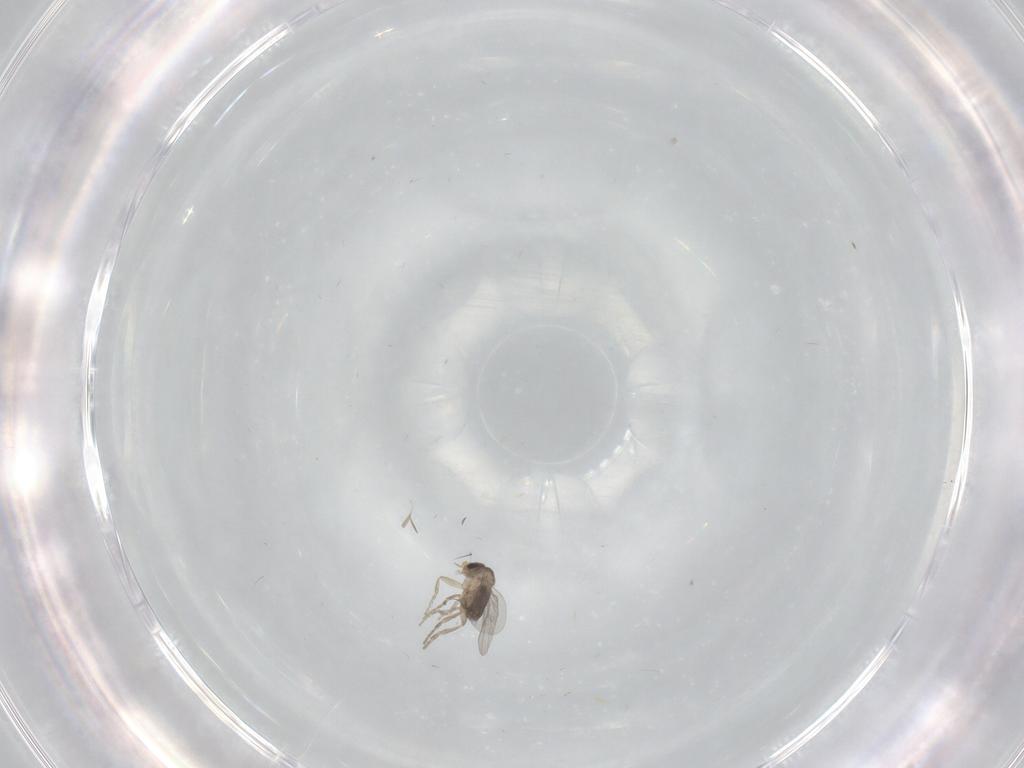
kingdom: Animalia
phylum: Arthropoda
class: Insecta
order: Diptera
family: Phoridae
